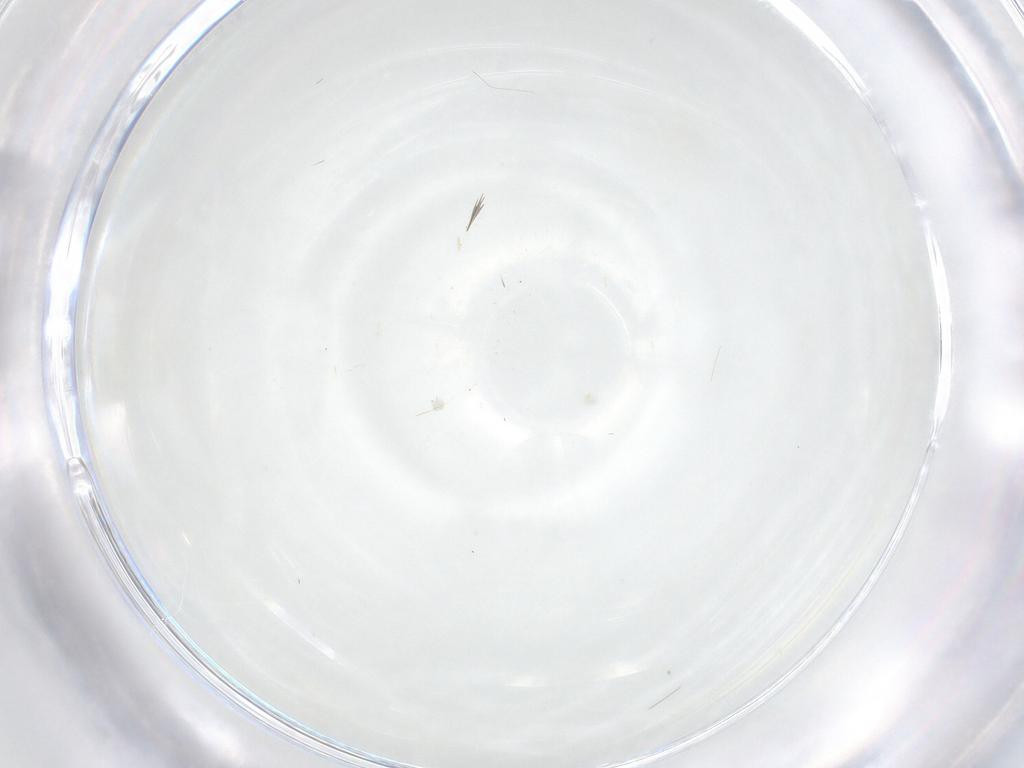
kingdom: Animalia
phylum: Arthropoda
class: Insecta
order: Hymenoptera
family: Ichneumonidae
